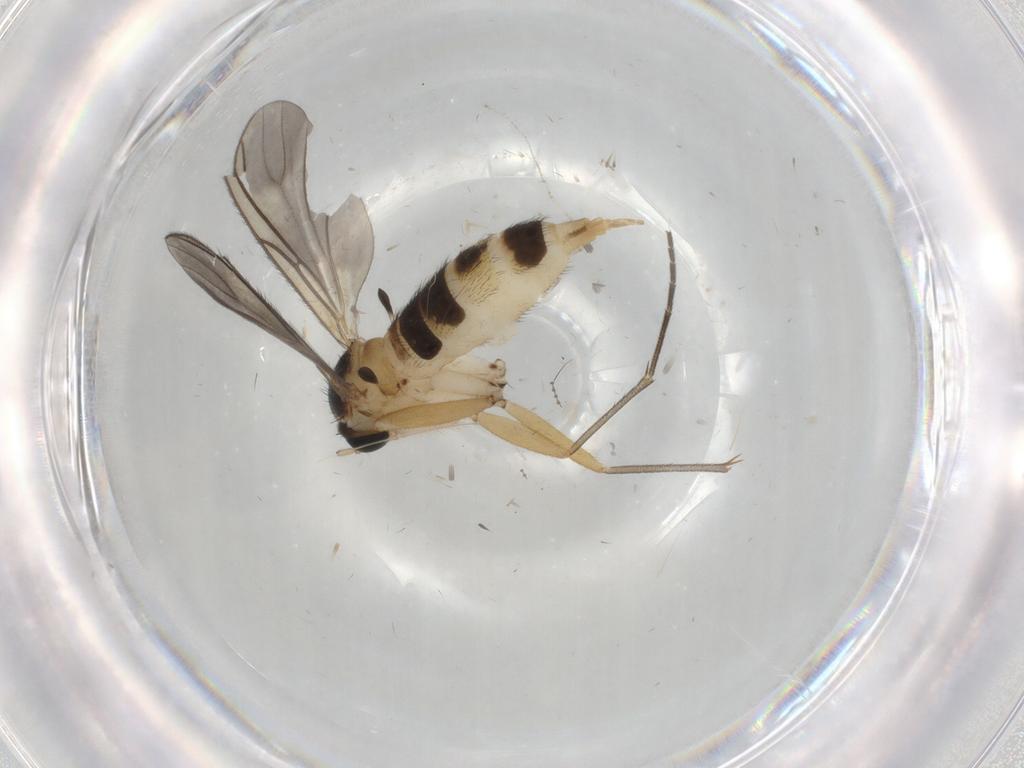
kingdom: Animalia
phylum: Arthropoda
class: Insecta
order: Diptera
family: Sciaridae
